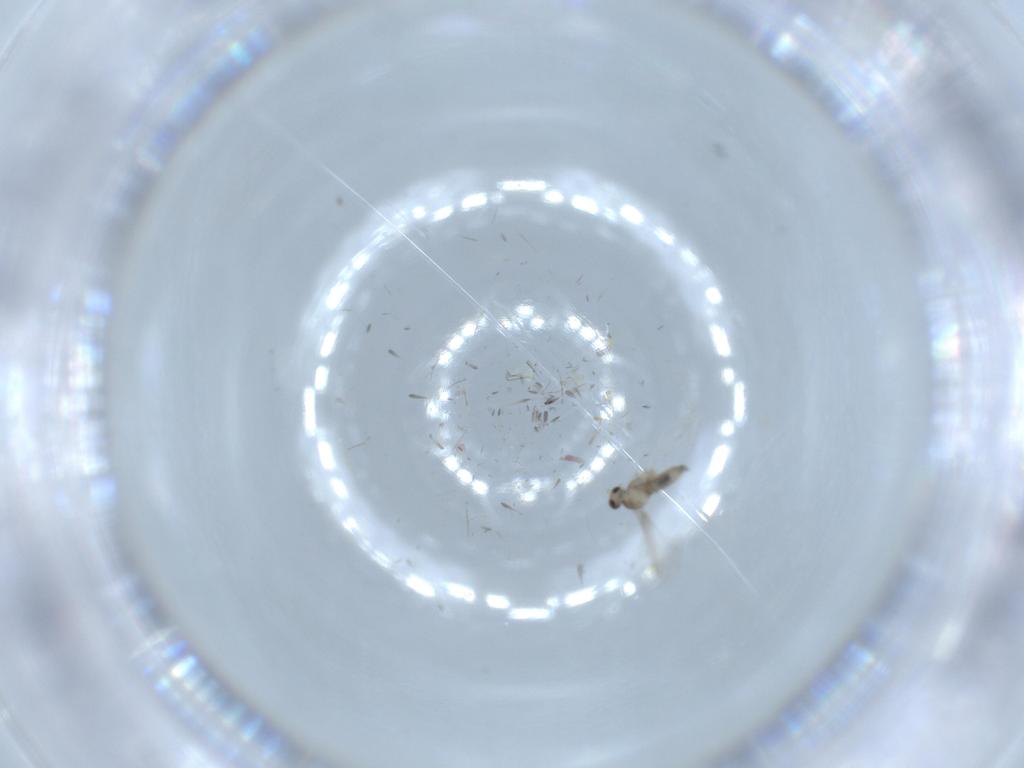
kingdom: Animalia
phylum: Arthropoda
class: Insecta
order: Diptera
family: Cecidomyiidae
